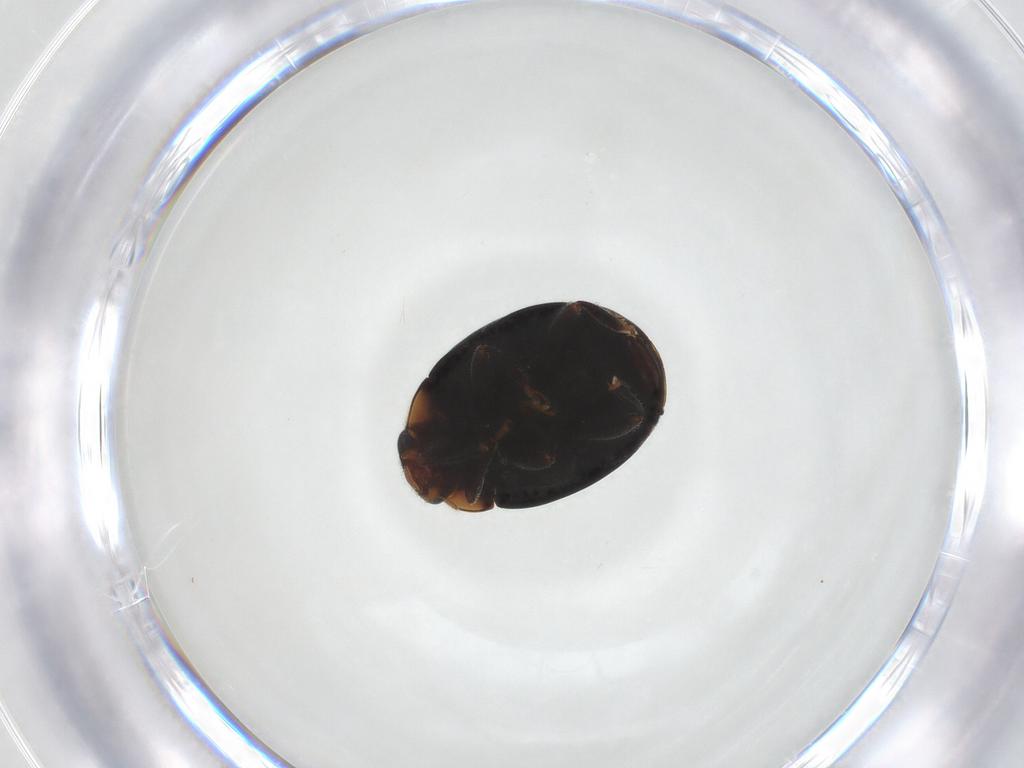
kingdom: Animalia
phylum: Arthropoda
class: Insecta
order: Coleoptera
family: Coccinellidae
